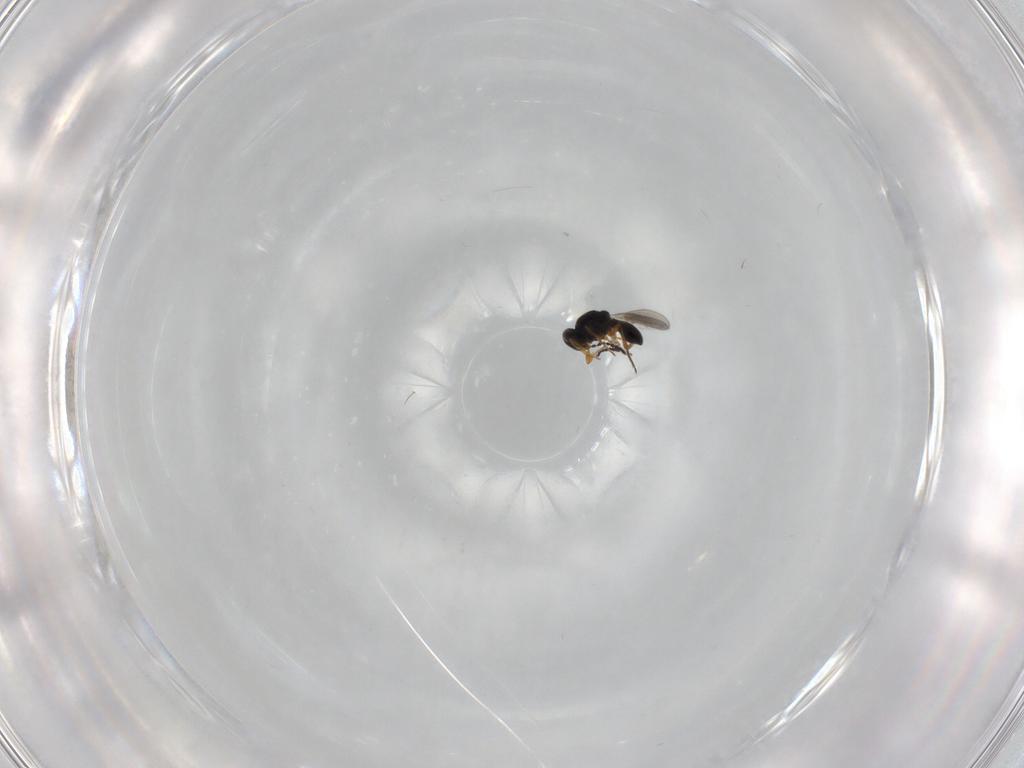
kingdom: Animalia
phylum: Arthropoda
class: Insecta
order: Hymenoptera
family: Platygastridae
